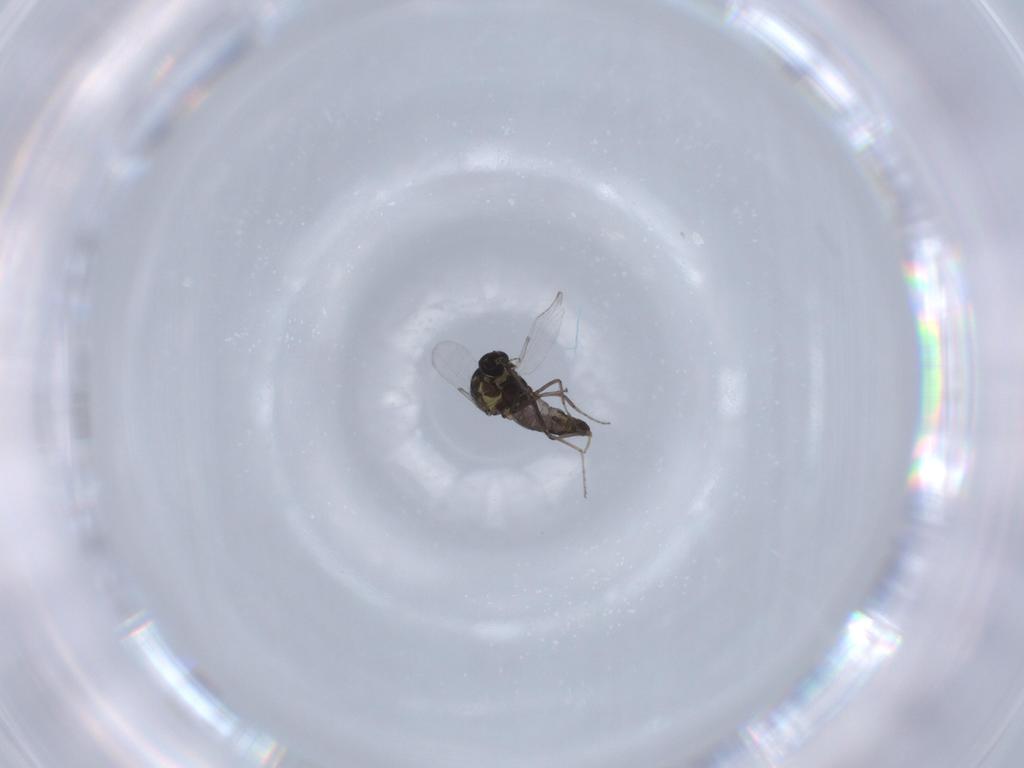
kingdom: Animalia
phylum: Arthropoda
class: Insecta
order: Diptera
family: Ceratopogonidae
